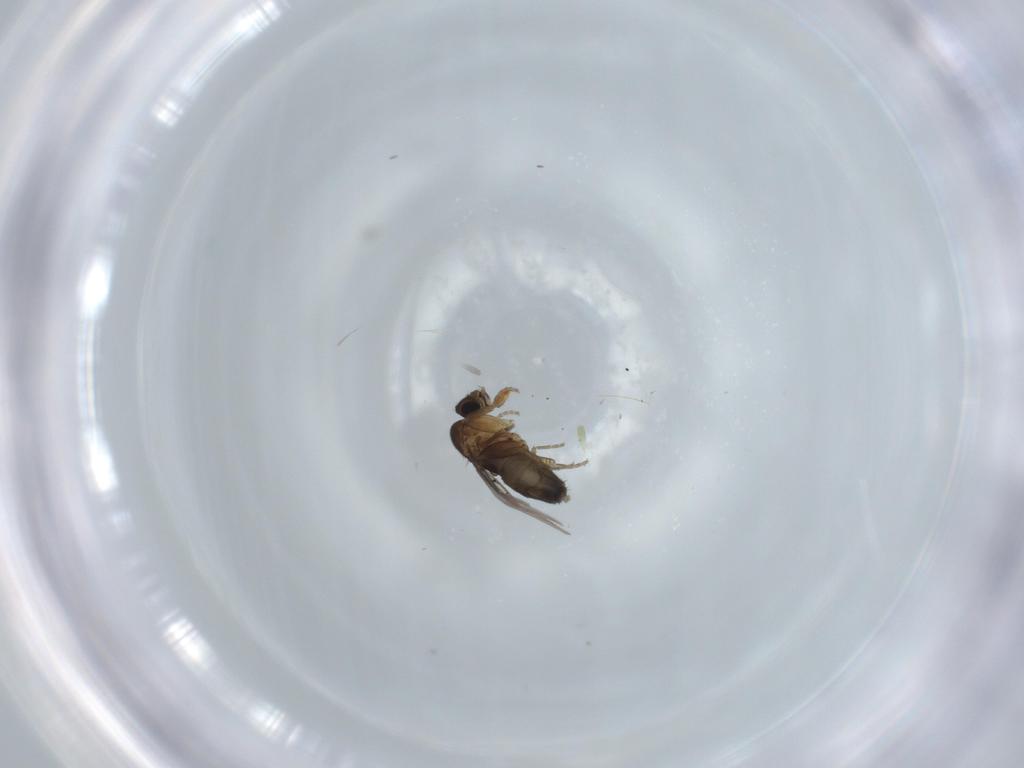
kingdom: Animalia
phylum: Arthropoda
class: Insecta
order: Diptera
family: Phoridae
